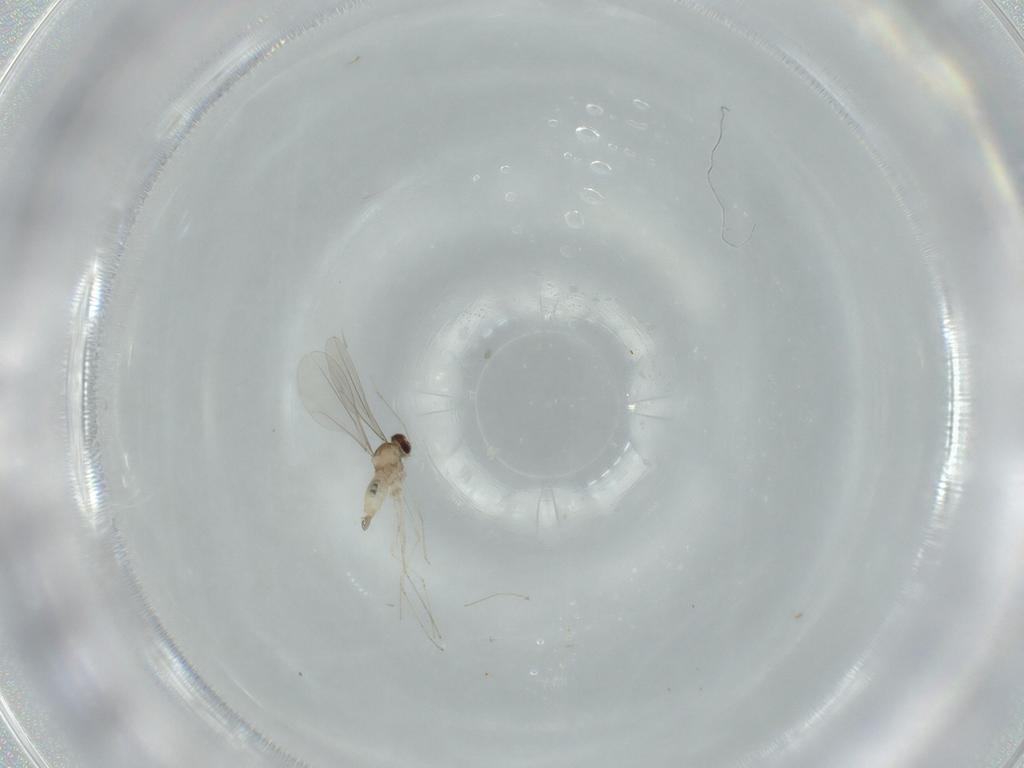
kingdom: Animalia
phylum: Arthropoda
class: Insecta
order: Diptera
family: Cecidomyiidae
